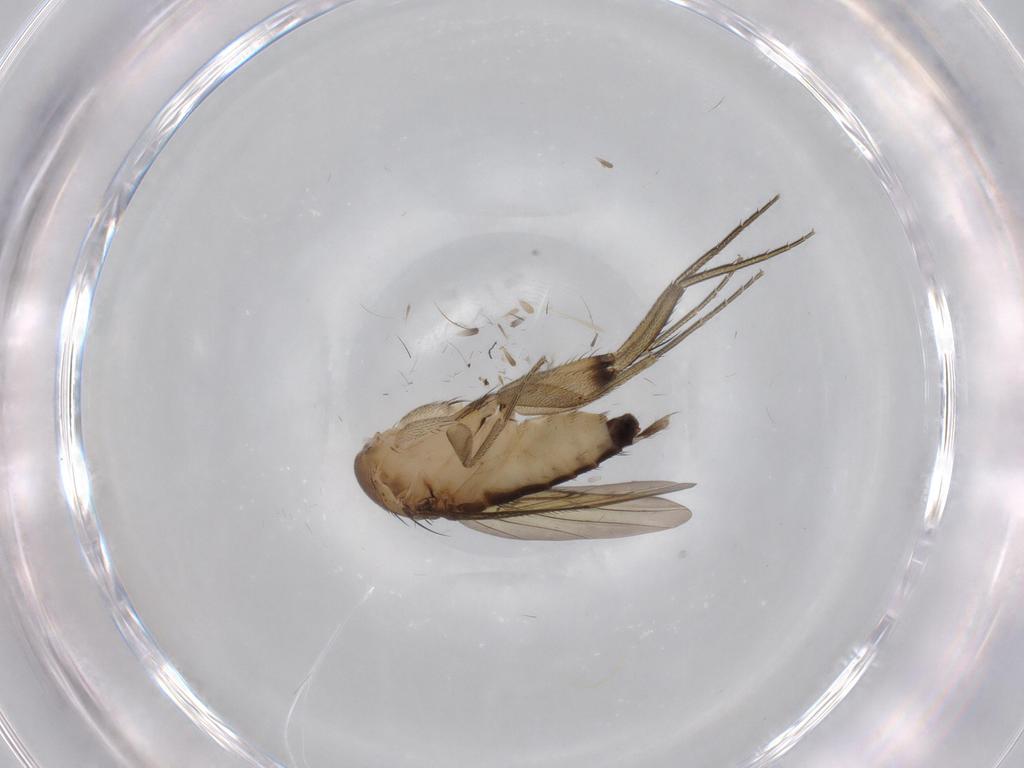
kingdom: Animalia
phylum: Arthropoda
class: Insecta
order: Diptera
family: Phoridae
